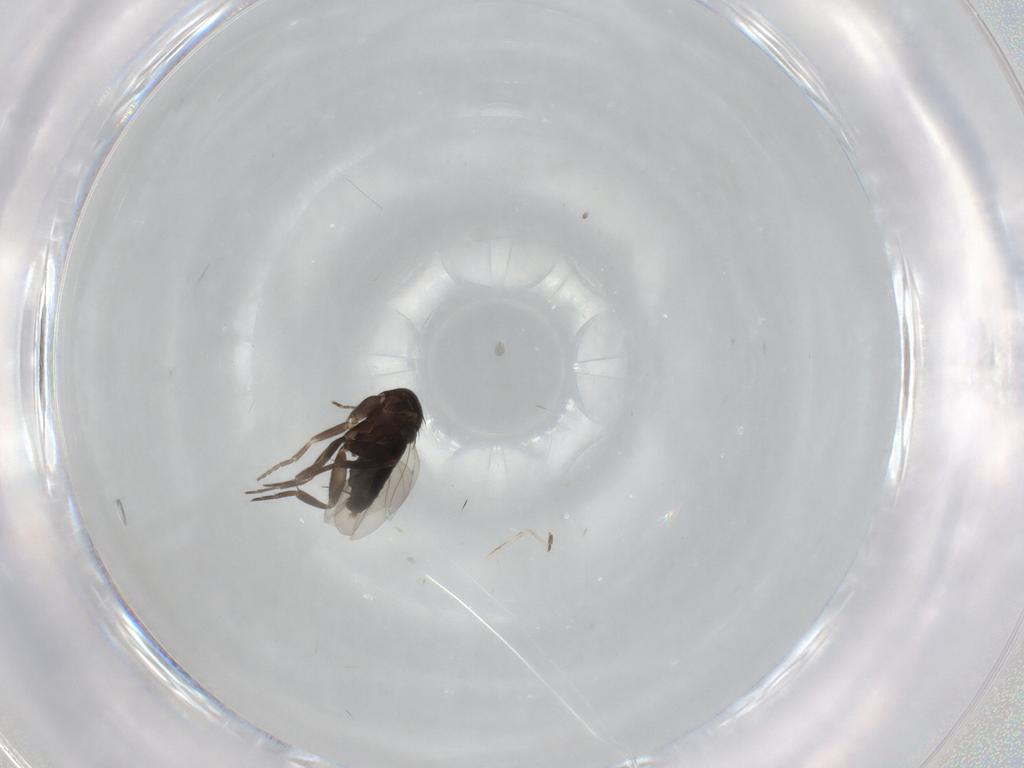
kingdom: Animalia
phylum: Arthropoda
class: Insecta
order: Diptera
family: Phoridae
